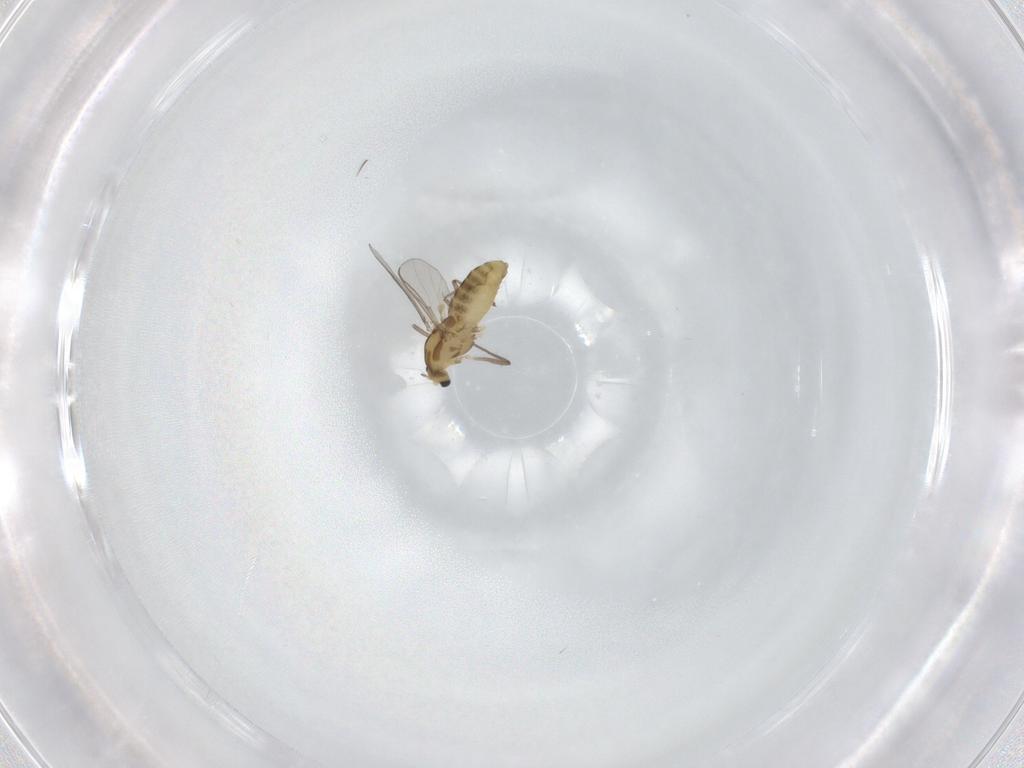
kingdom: Animalia
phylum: Arthropoda
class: Insecta
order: Diptera
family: Chironomidae
